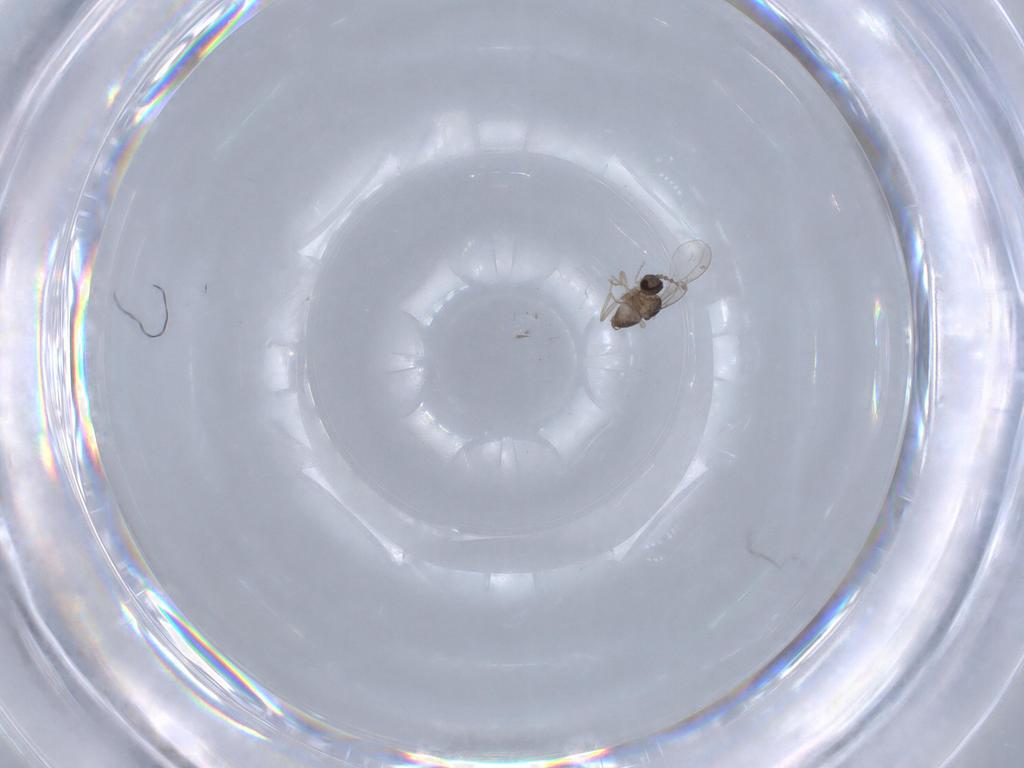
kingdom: Animalia
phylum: Arthropoda
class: Insecta
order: Diptera
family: Cecidomyiidae
